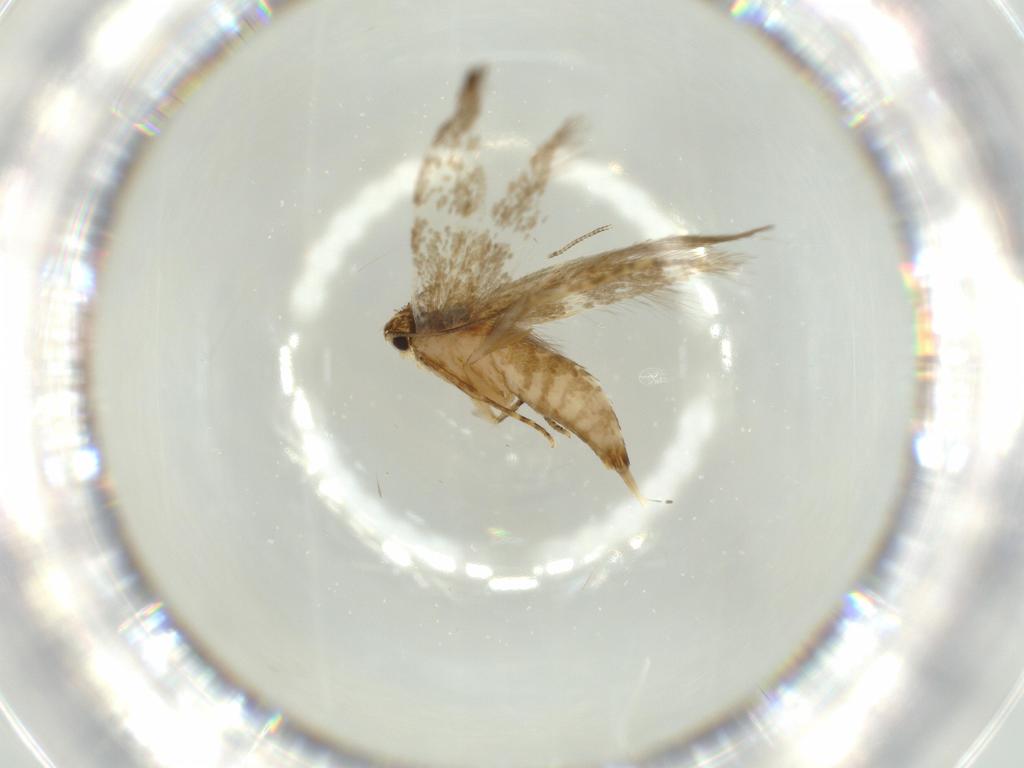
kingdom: Animalia
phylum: Arthropoda
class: Insecta
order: Lepidoptera
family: Tineidae
